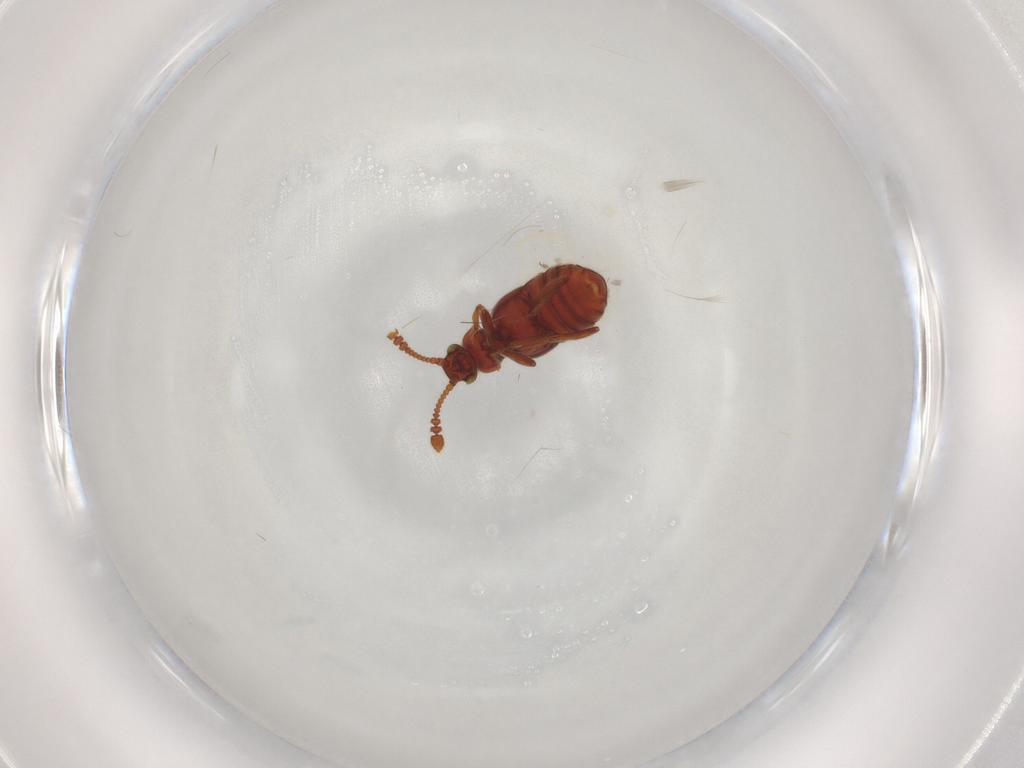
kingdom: Animalia
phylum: Arthropoda
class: Insecta
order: Coleoptera
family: Staphylinidae
